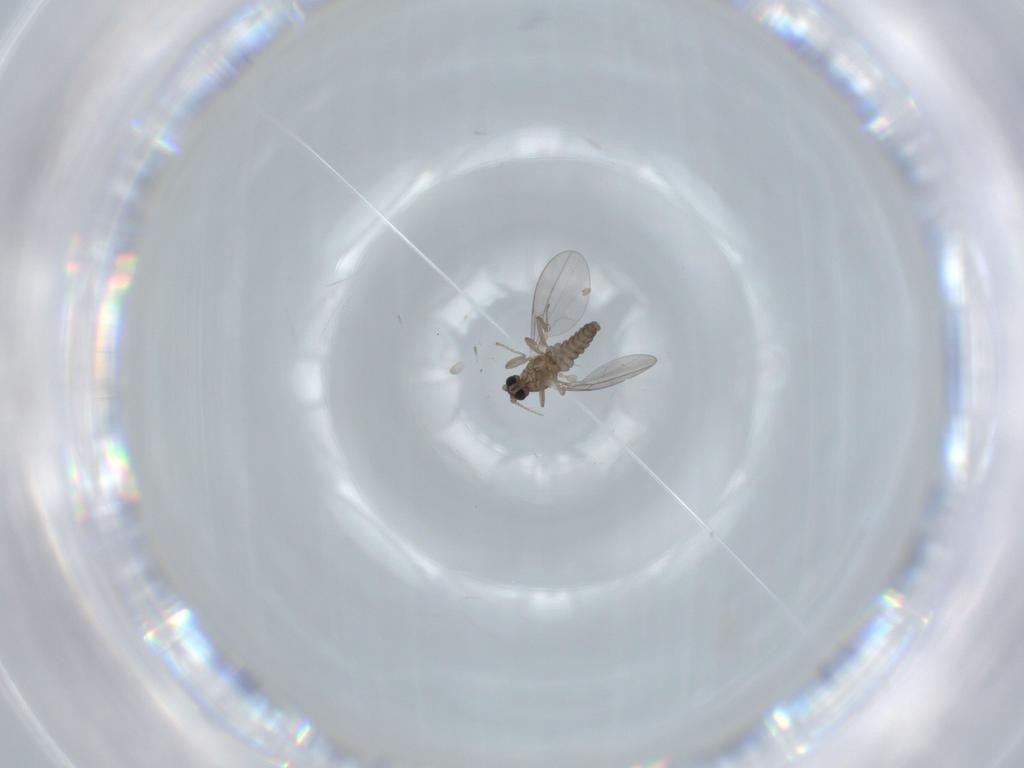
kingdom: Animalia
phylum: Arthropoda
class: Insecta
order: Diptera
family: Cecidomyiidae
